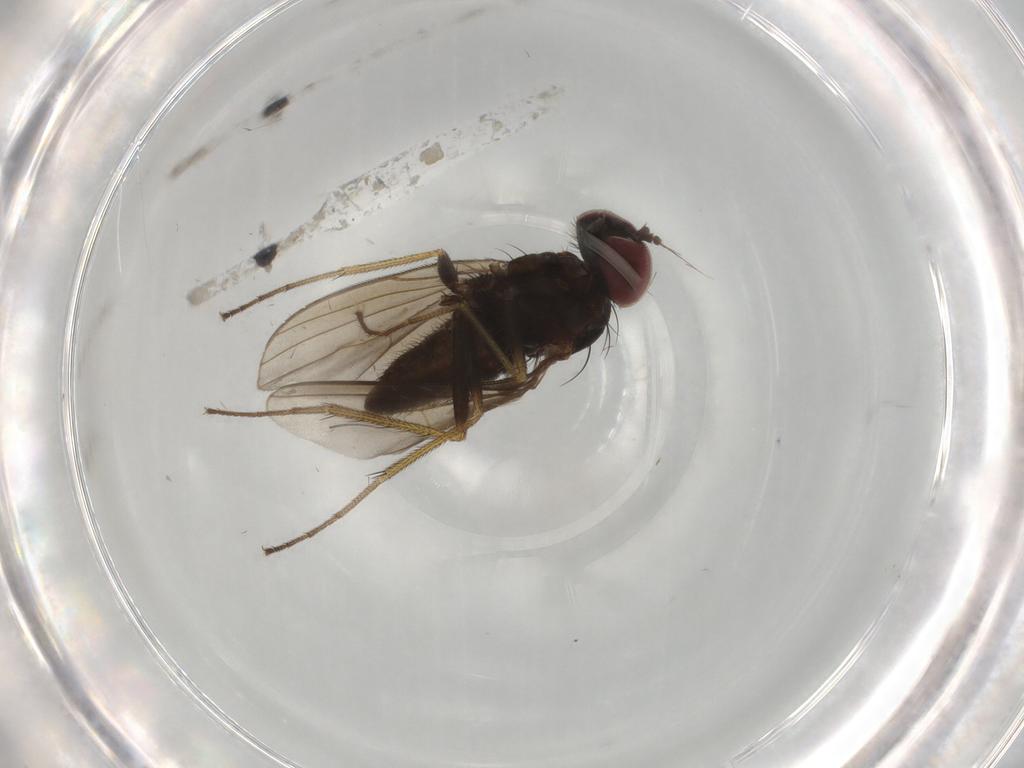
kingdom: Animalia
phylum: Arthropoda
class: Insecta
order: Diptera
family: Dolichopodidae
